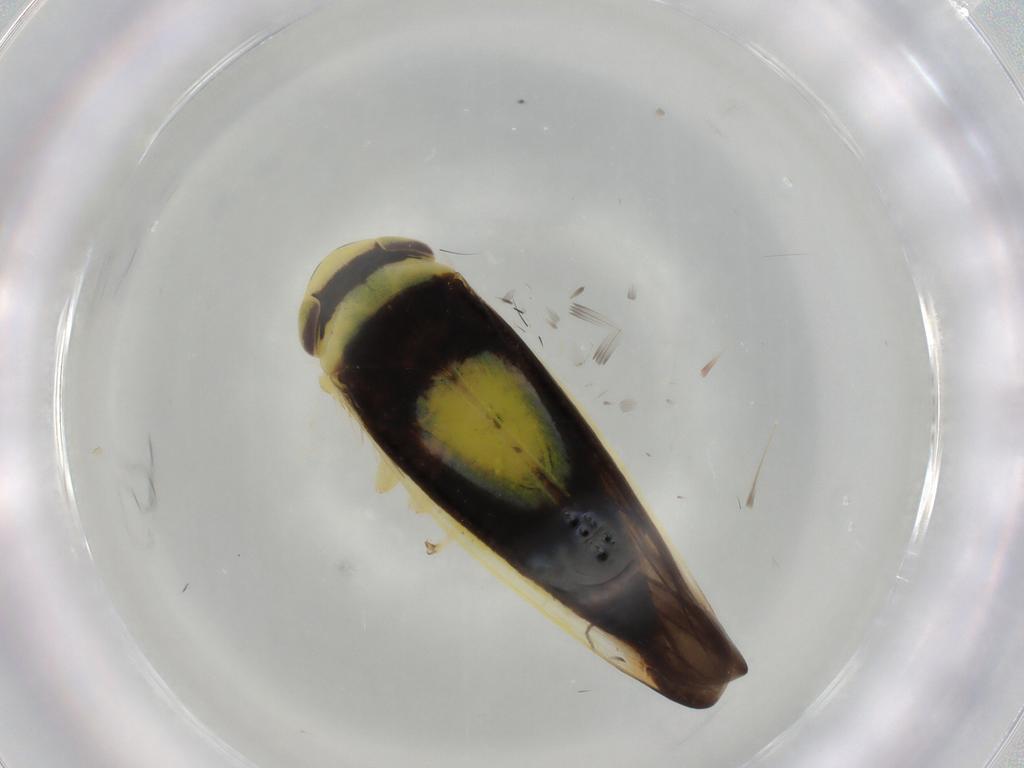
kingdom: Animalia
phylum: Arthropoda
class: Insecta
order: Hemiptera
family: Cicadellidae
